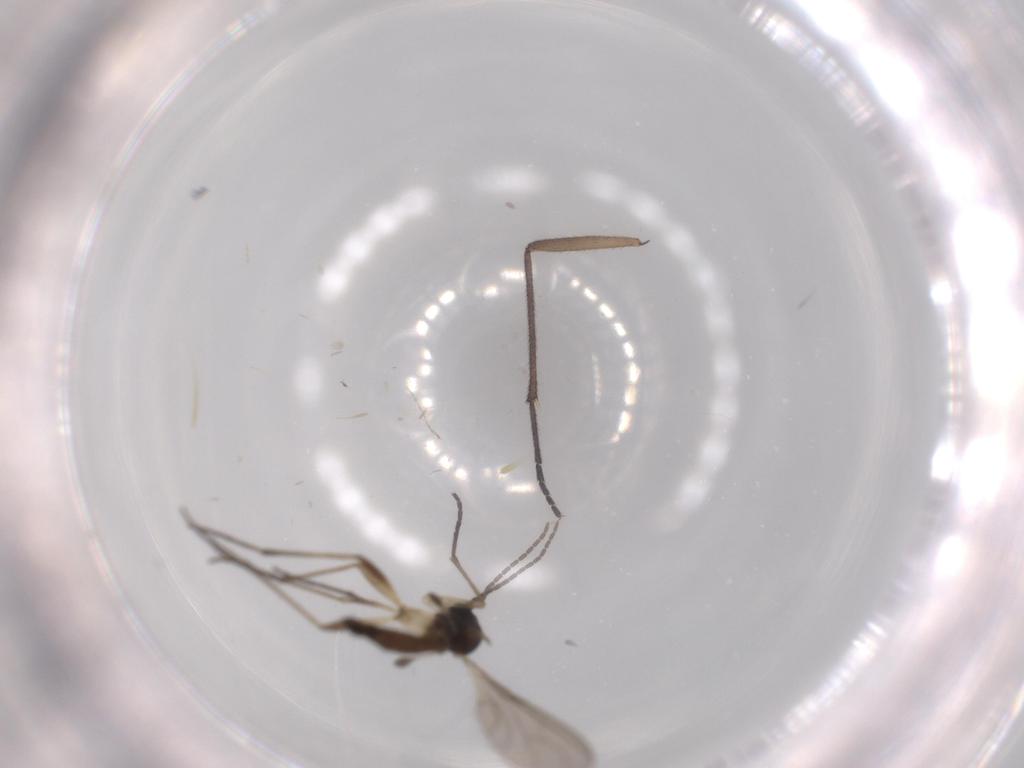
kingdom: Animalia
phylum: Arthropoda
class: Insecta
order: Diptera
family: Sciaridae
